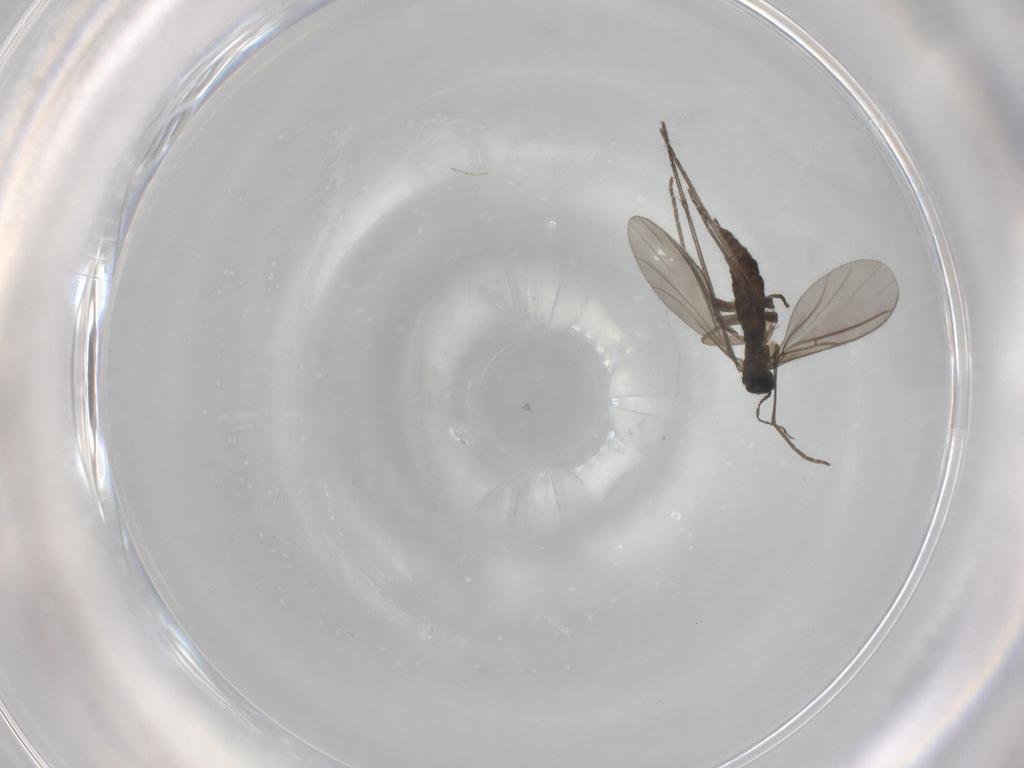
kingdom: Animalia
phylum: Arthropoda
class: Insecta
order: Diptera
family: Sciaridae
